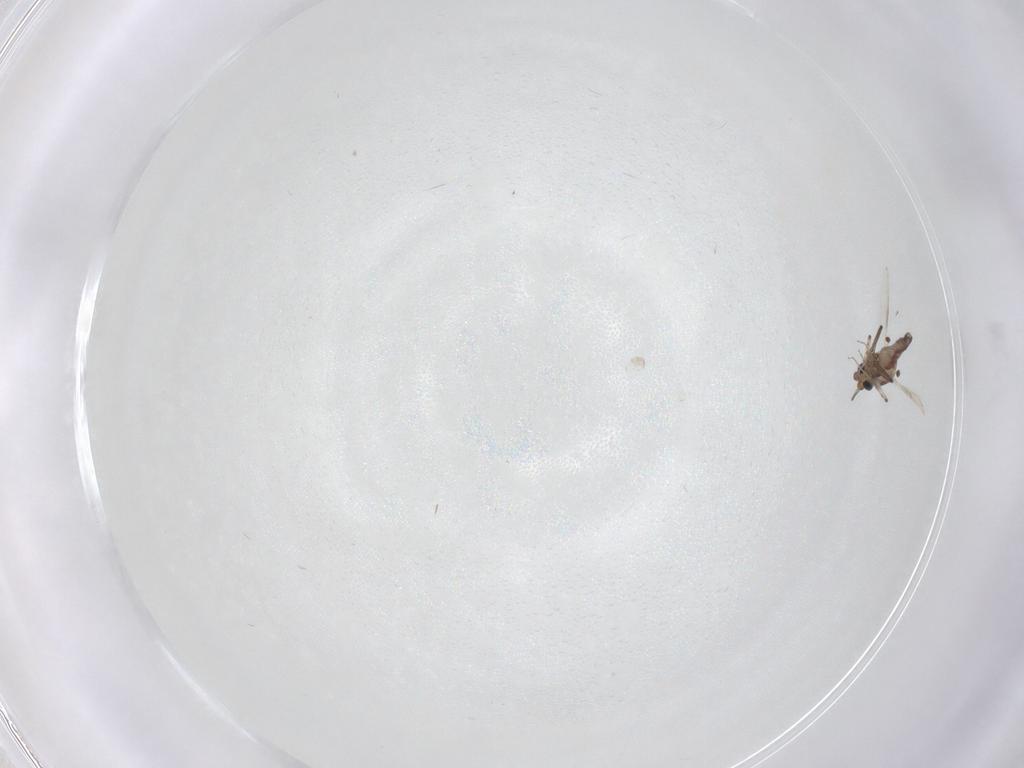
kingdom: Animalia
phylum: Arthropoda
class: Insecta
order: Diptera
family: Ceratopogonidae
